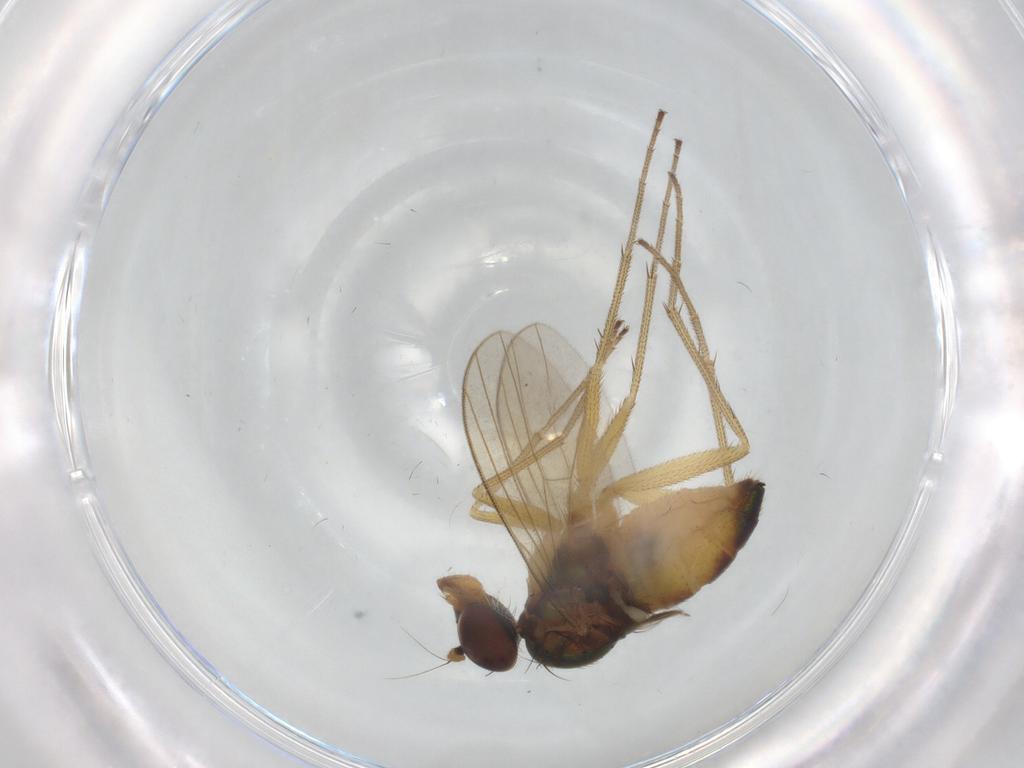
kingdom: Animalia
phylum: Arthropoda
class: Insecta
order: Diptera
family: Dolichopodidae
